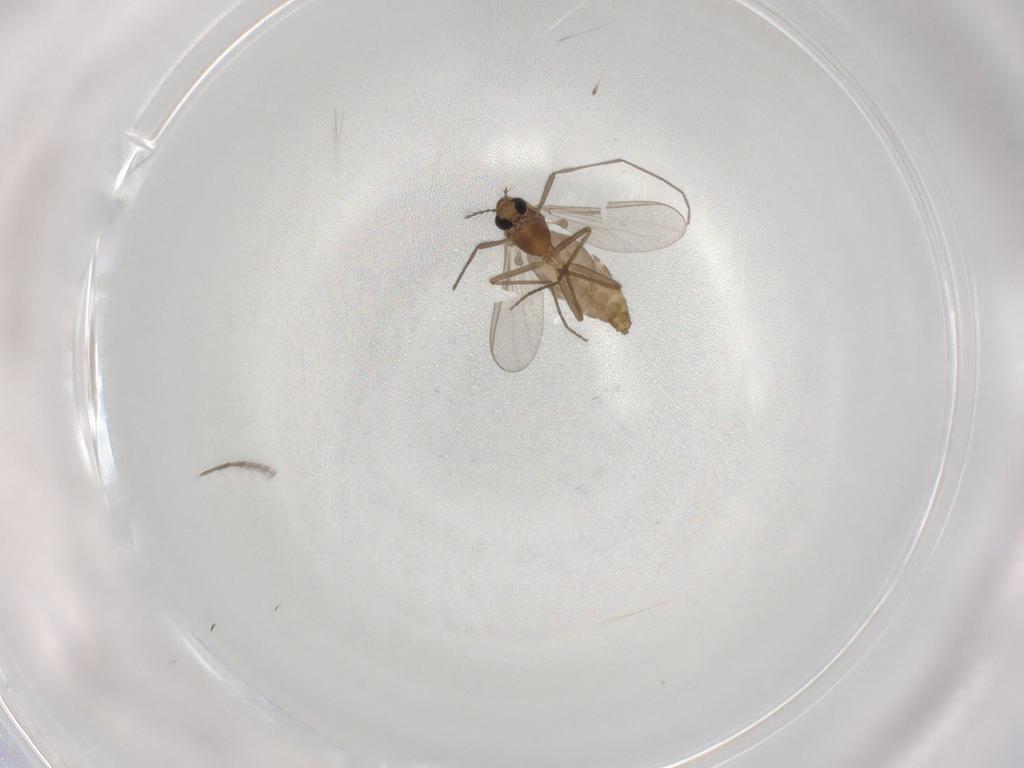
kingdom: Animalia
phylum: Arthropoda
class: Insecta
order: Diptera
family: Chironomidae
